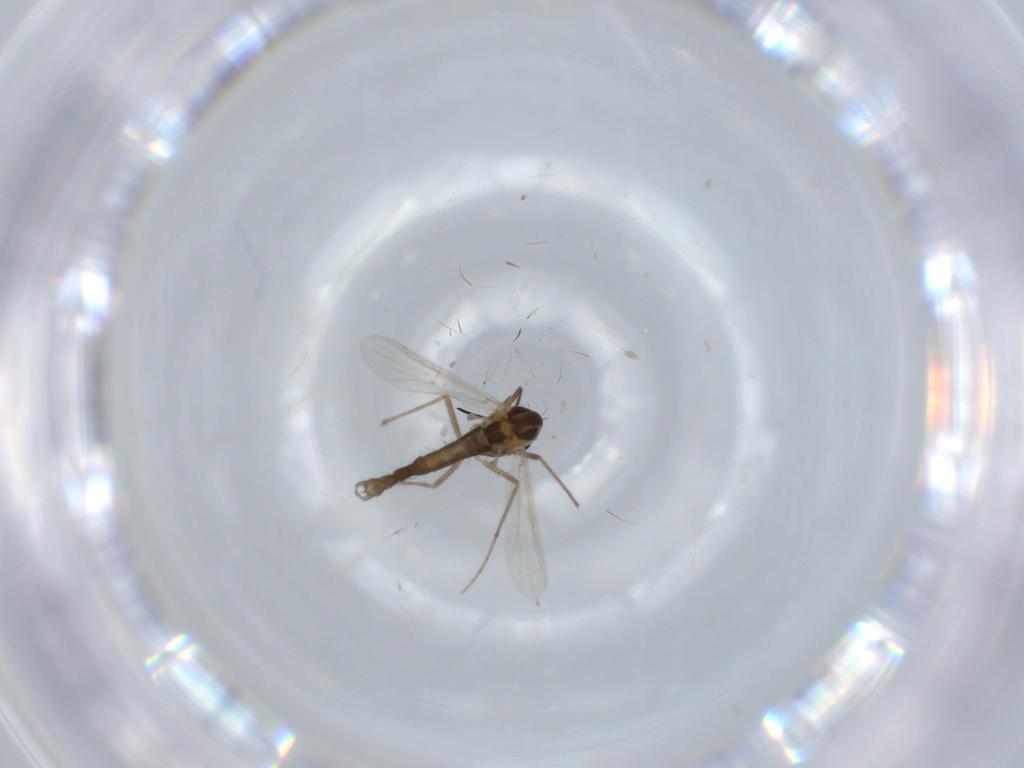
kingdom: Animalia
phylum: Arthropoda
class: Insecta
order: Diptera
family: Chironomidae
